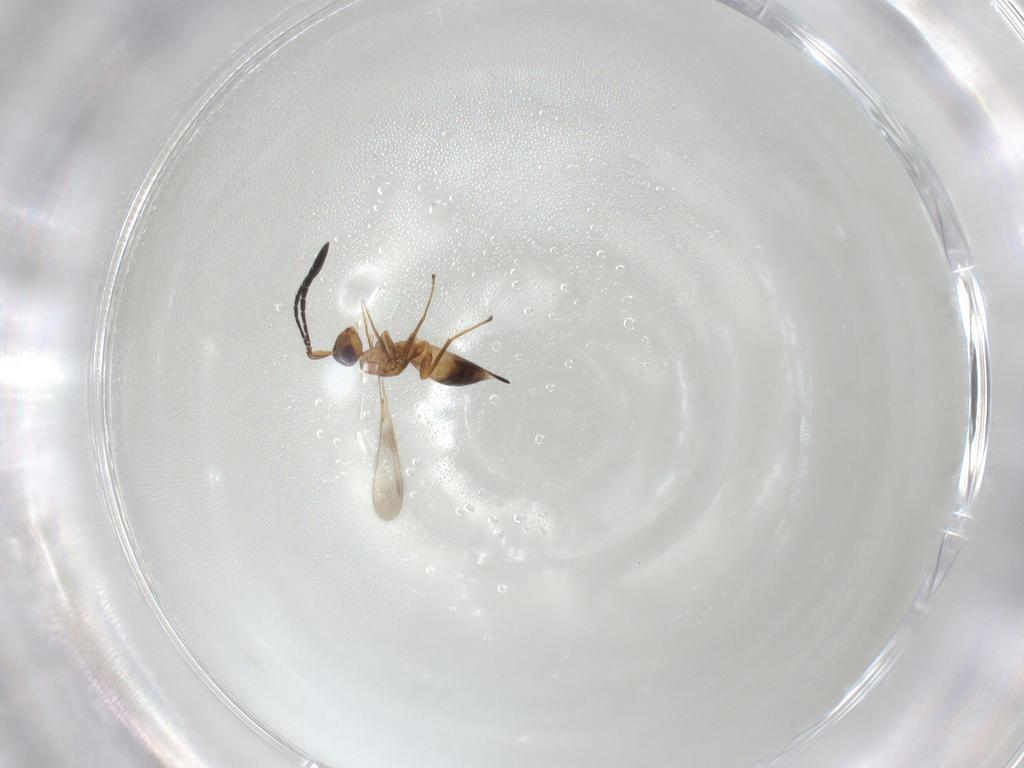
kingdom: Animalia
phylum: Arthropoda
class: Insecta
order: Hymenoptera
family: Mymaridae
